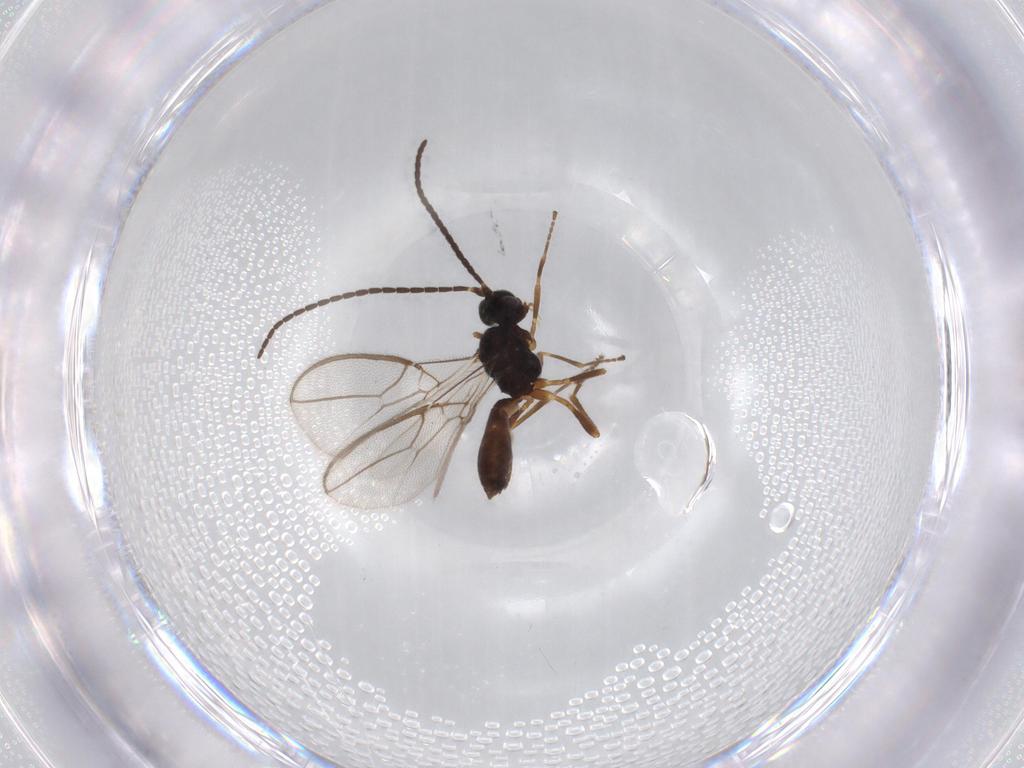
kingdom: Animalia
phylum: Arthropoda
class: Insecta
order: Hymenoptera
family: Braconidae
